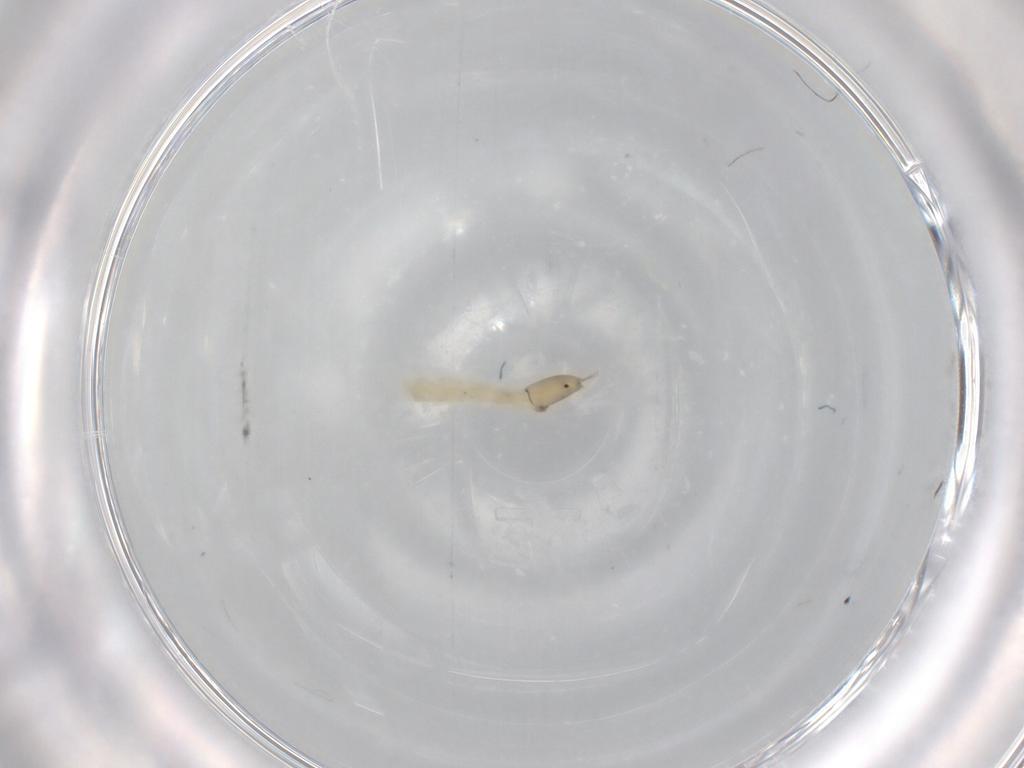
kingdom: Animalia
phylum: Arthropoda
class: Insecta
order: Diptera
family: Chironomidae
